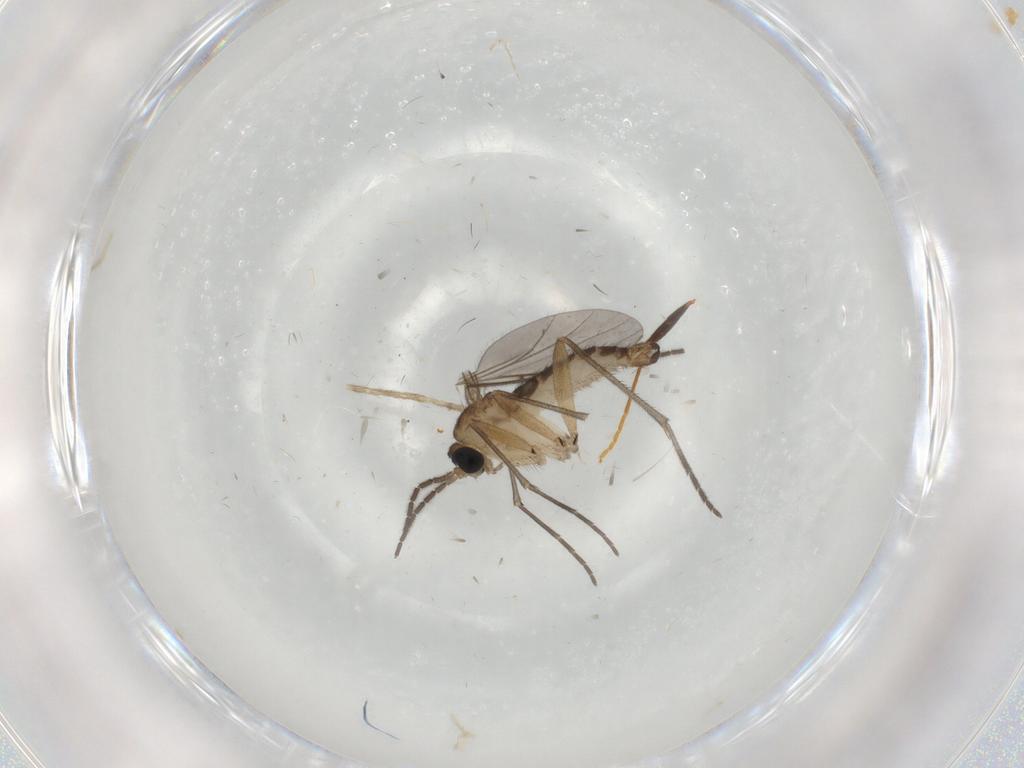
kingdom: Animalia
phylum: Arthropoda
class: Insecta
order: Diptera
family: Sciaridae
